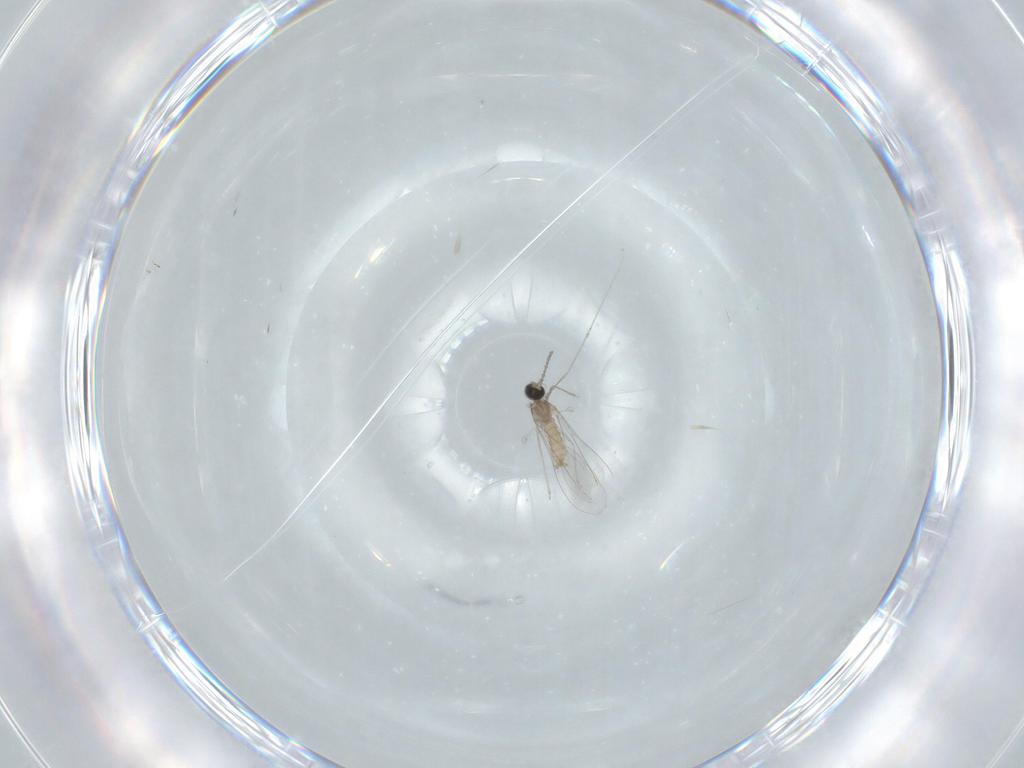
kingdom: Animalia
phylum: Arthropoda
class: Insecta
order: Diptera
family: Cecidomyiidae
